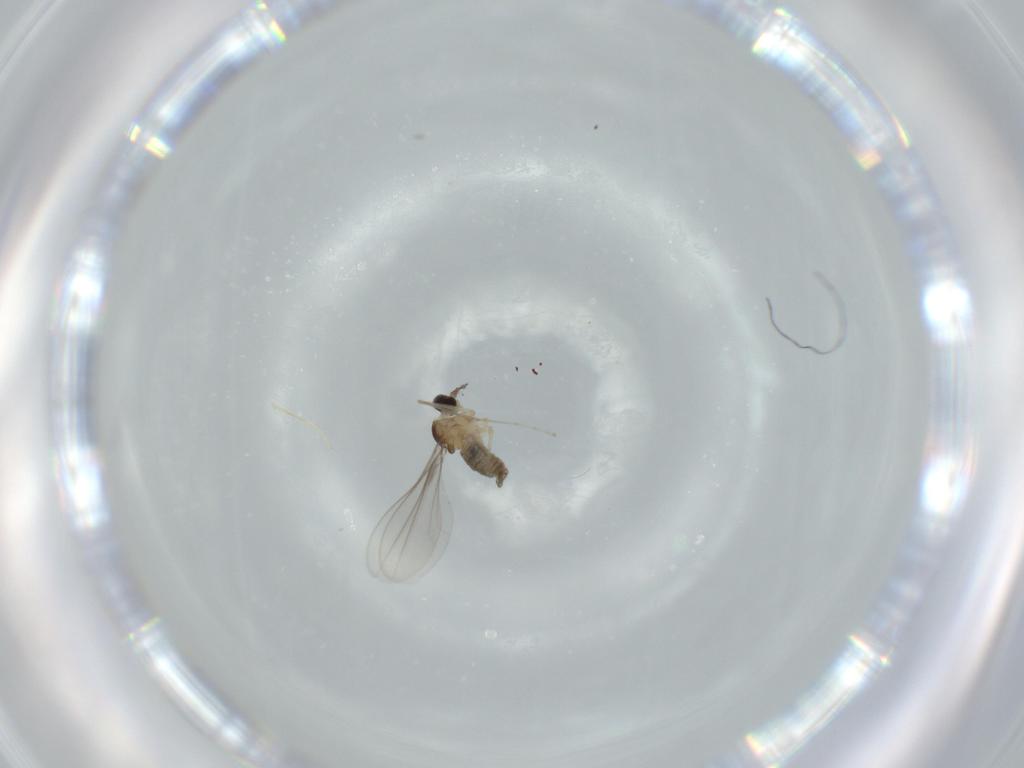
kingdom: Animalia
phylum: Arthropoda
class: Insecta
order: Diptera
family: Cecidomyiidae
